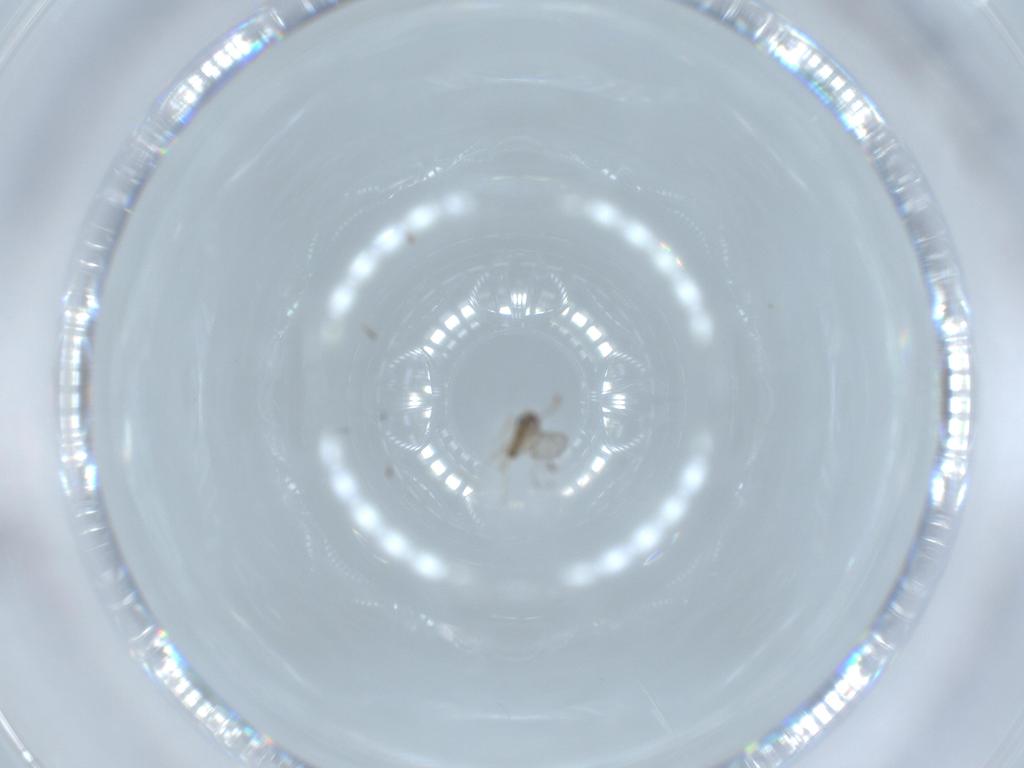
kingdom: Animalia
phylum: Arthropoda
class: Insecta
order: Diptera
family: Cecidomyiidae
